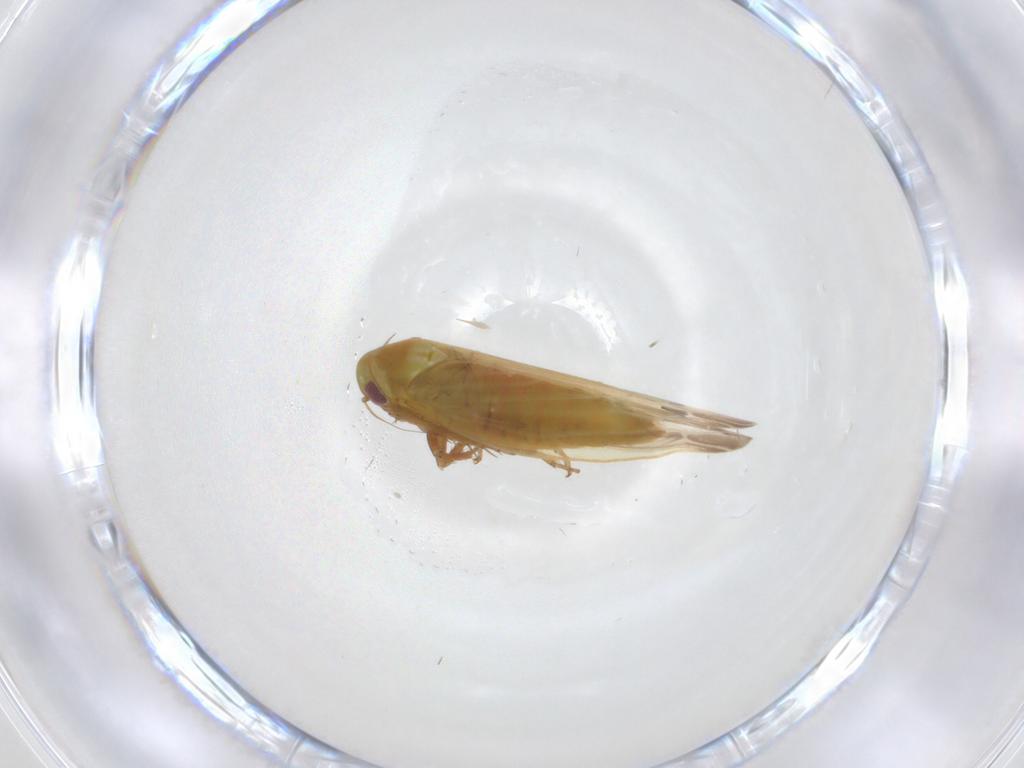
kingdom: Animalia
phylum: Arthropoda
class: Insecta
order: Hemiptera
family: Cicadellidae
